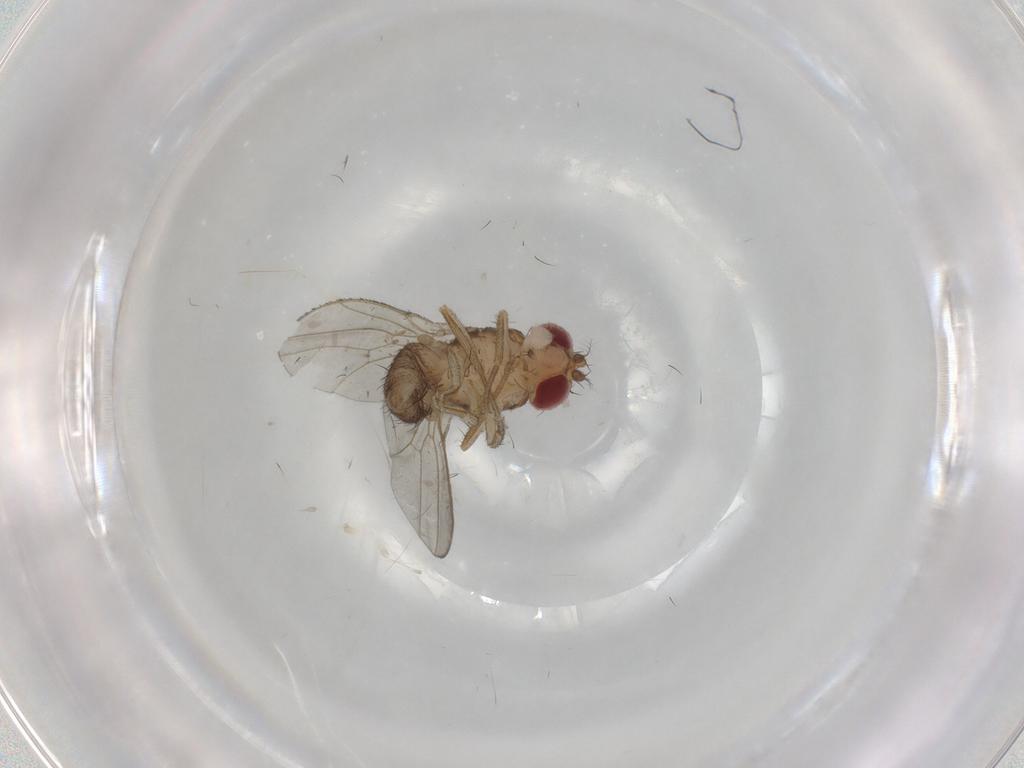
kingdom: Animalia
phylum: Arthropoda
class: Insecta
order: Diptera
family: Drosophilidae
